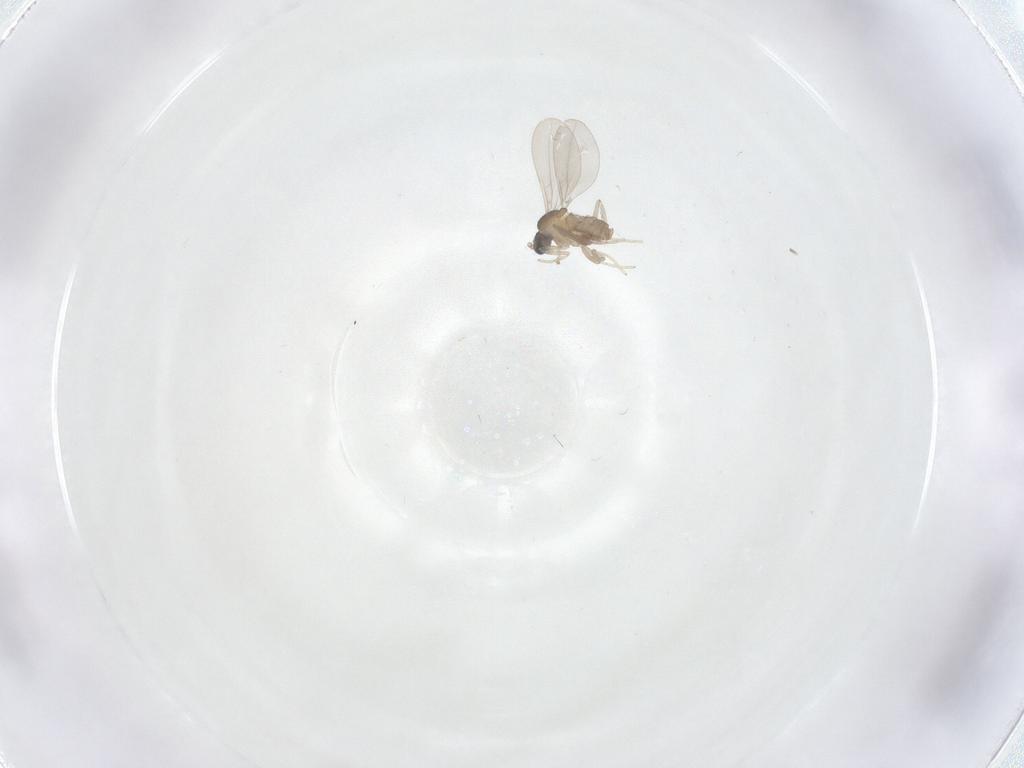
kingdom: Animalia
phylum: Arthropoda
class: Insecta
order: Diptera
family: Cecidomyiidae
